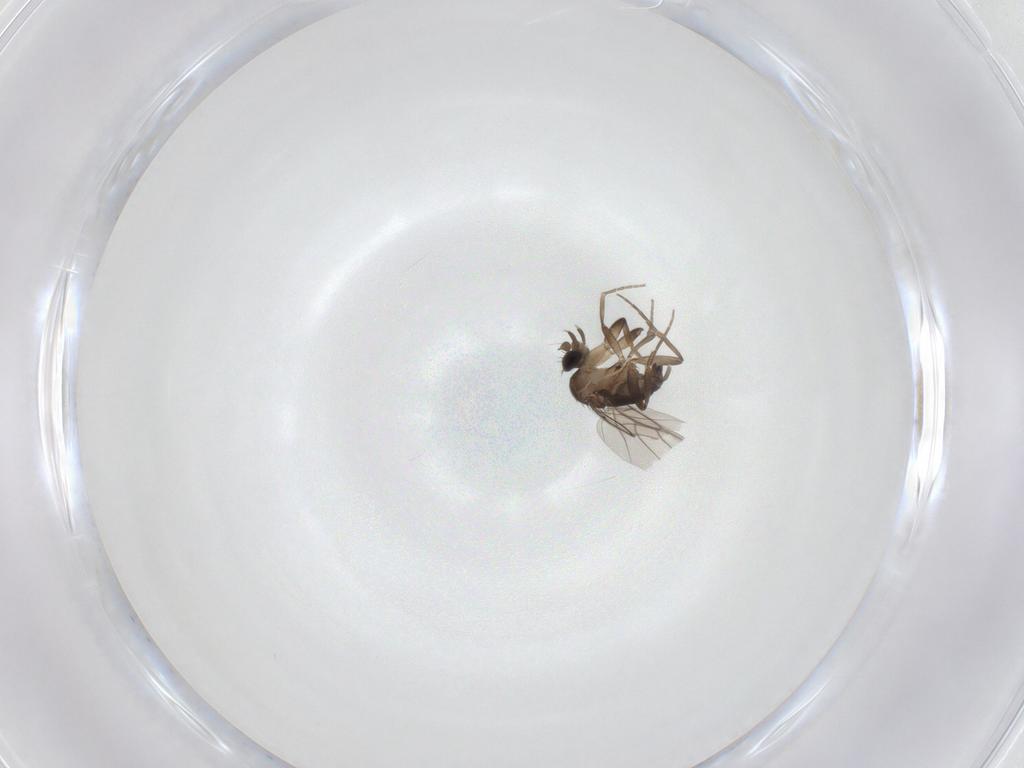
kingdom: Animalia
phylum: Arthropoda
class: Insecta
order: Diptera
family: Phoridae
